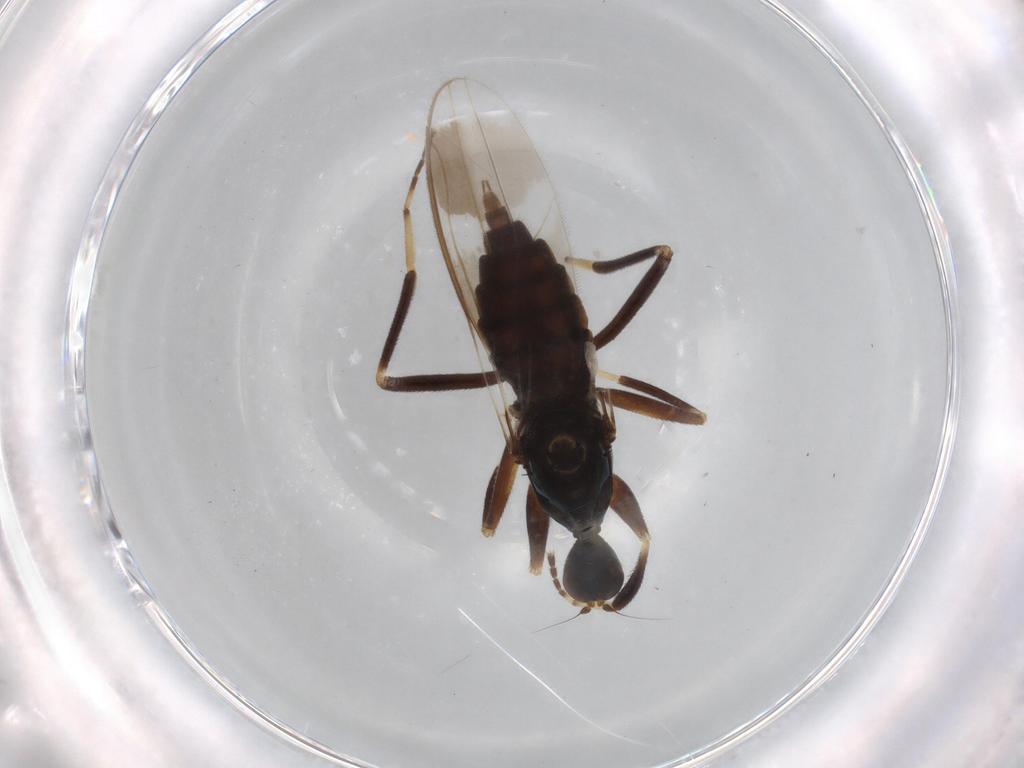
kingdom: Animalia
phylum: Arthropoda
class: Insecta
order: Diptera
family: Hybotidae
